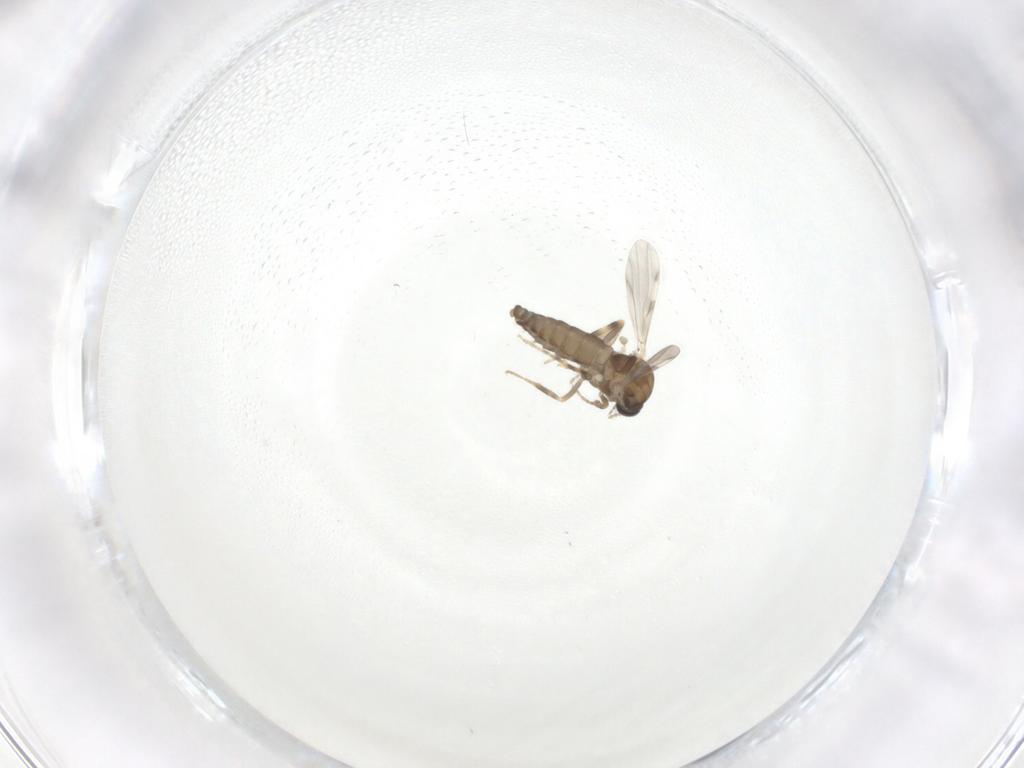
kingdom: Animalia
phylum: Arthropoda
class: Insecta
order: Diptera
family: Ceratopogonidae
